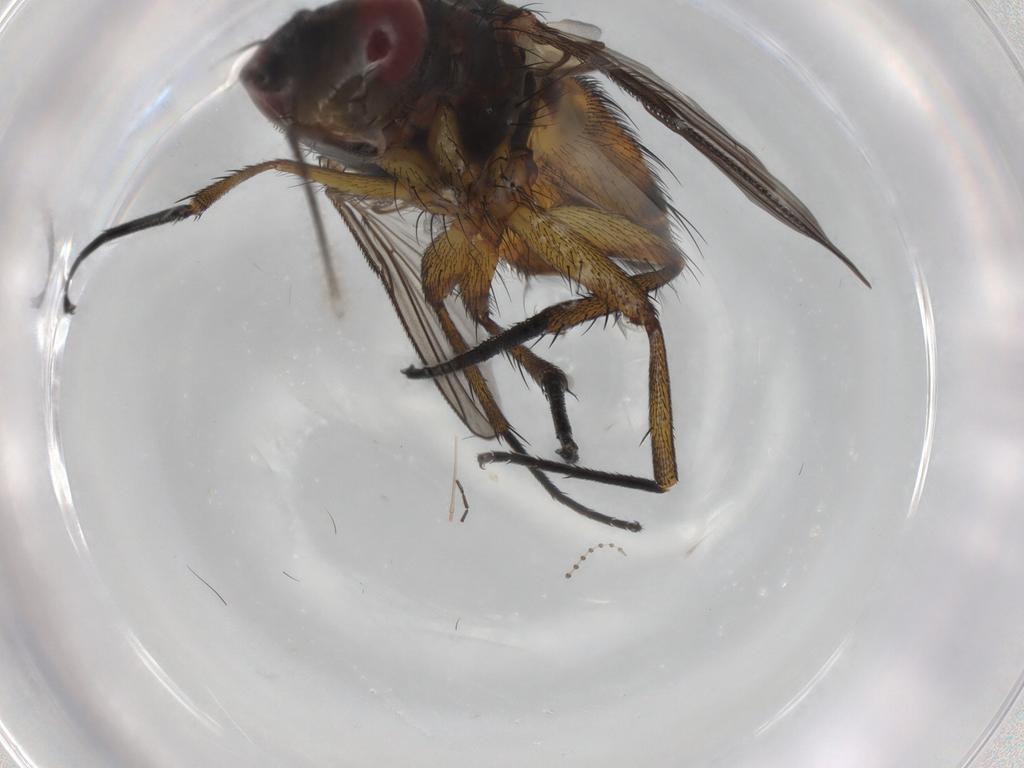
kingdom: Animalia
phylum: Arthropoda
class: Insecta
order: Diptera
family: Tachinidae
